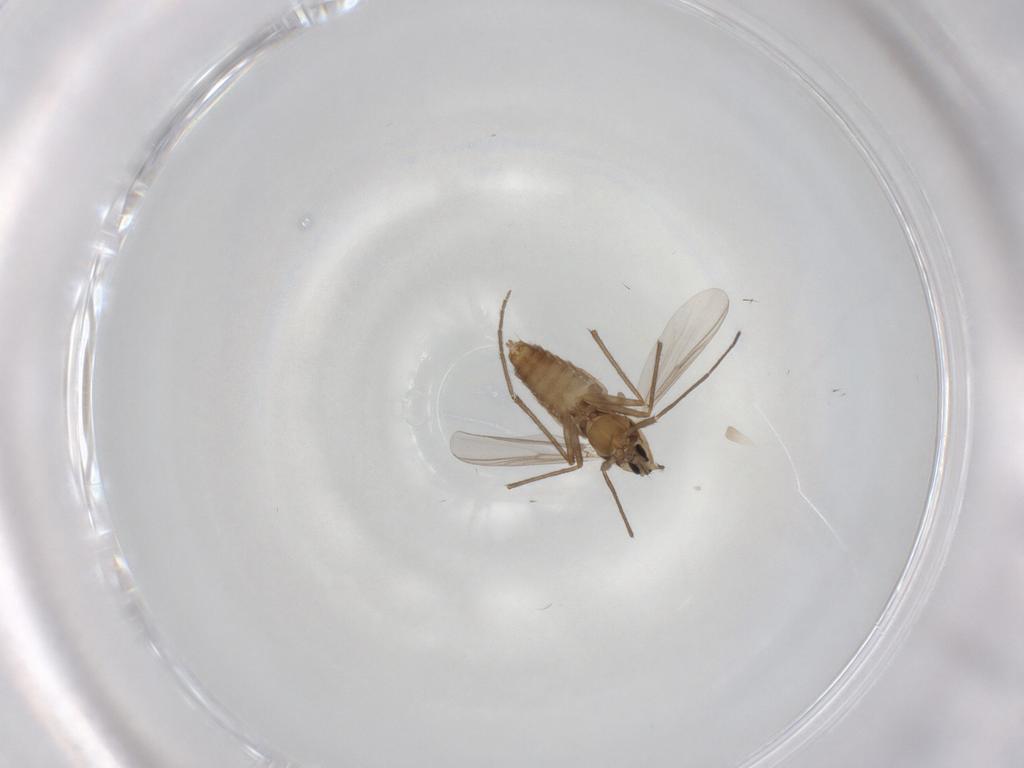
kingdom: Animalia
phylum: Arthropoda
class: Insecta
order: Diptera
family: Chironomidae
